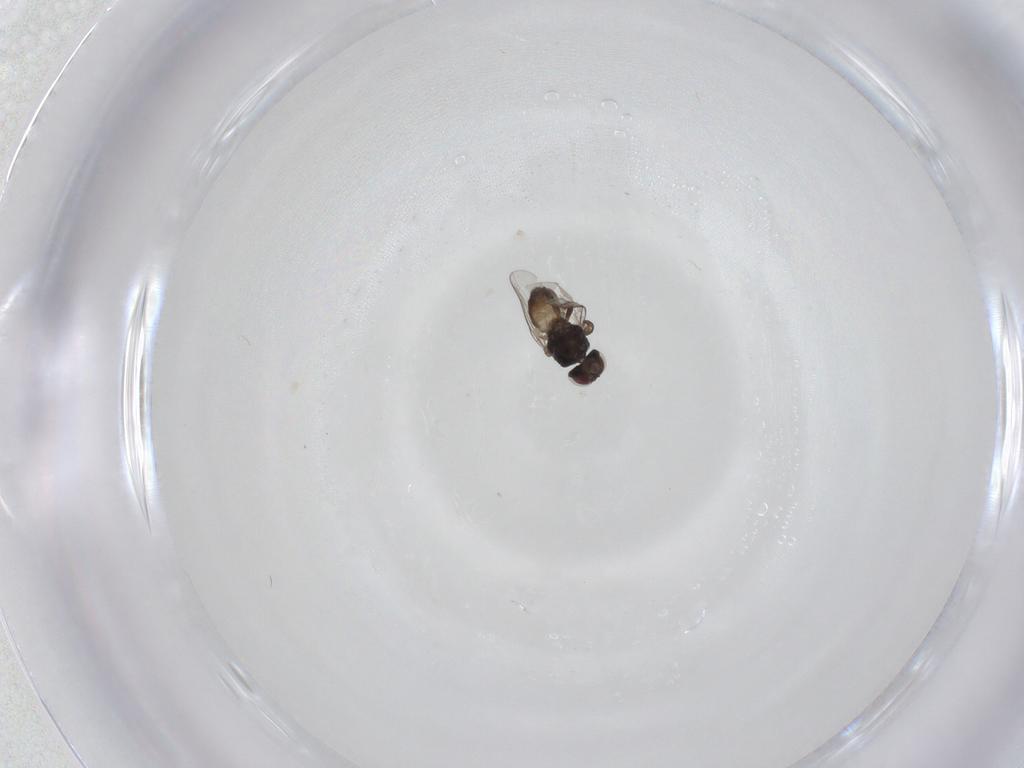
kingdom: Animalia
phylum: Arthropoda
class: Insecta
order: Diptera
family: Chloropidae
